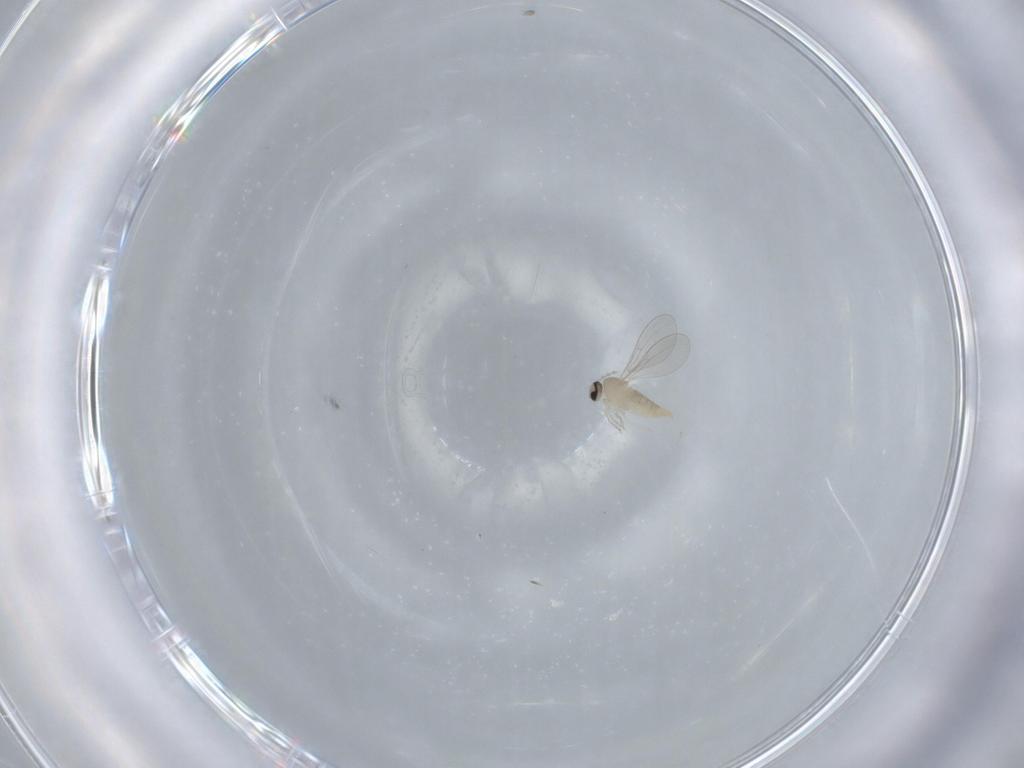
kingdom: Animalia
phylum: Arthropoda
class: Insecta
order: Diptera
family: Cecidomyiidae
